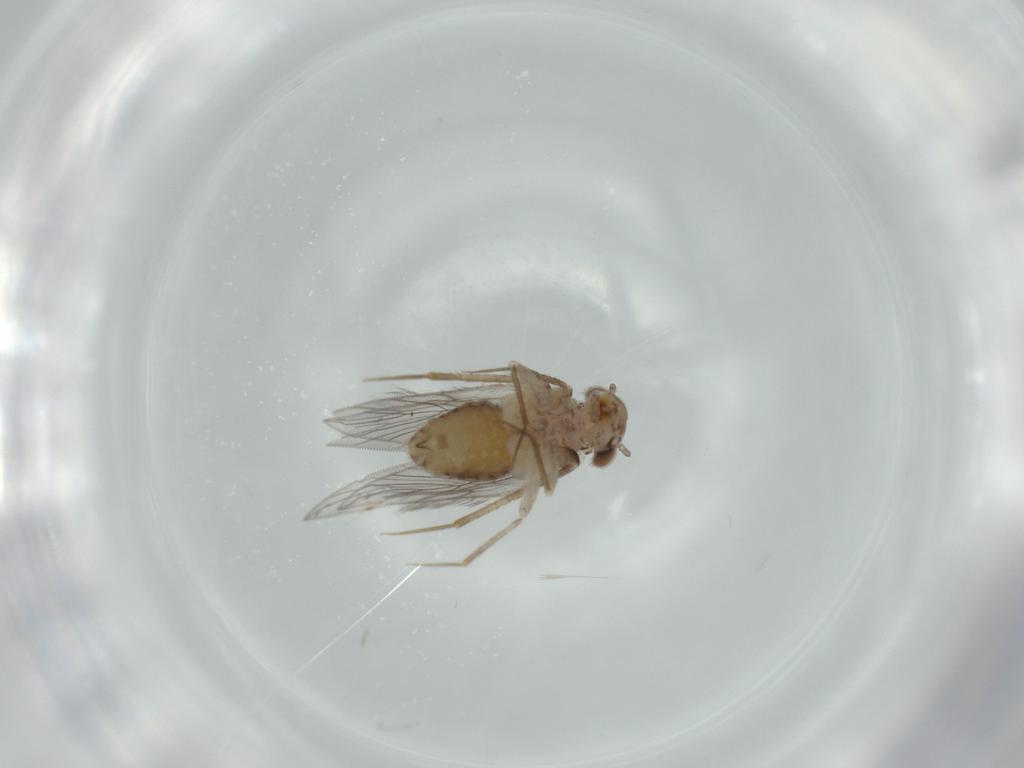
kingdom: Animalia
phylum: Arthropoda
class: Insecta
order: Psocodea
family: Lepidopsocidae
